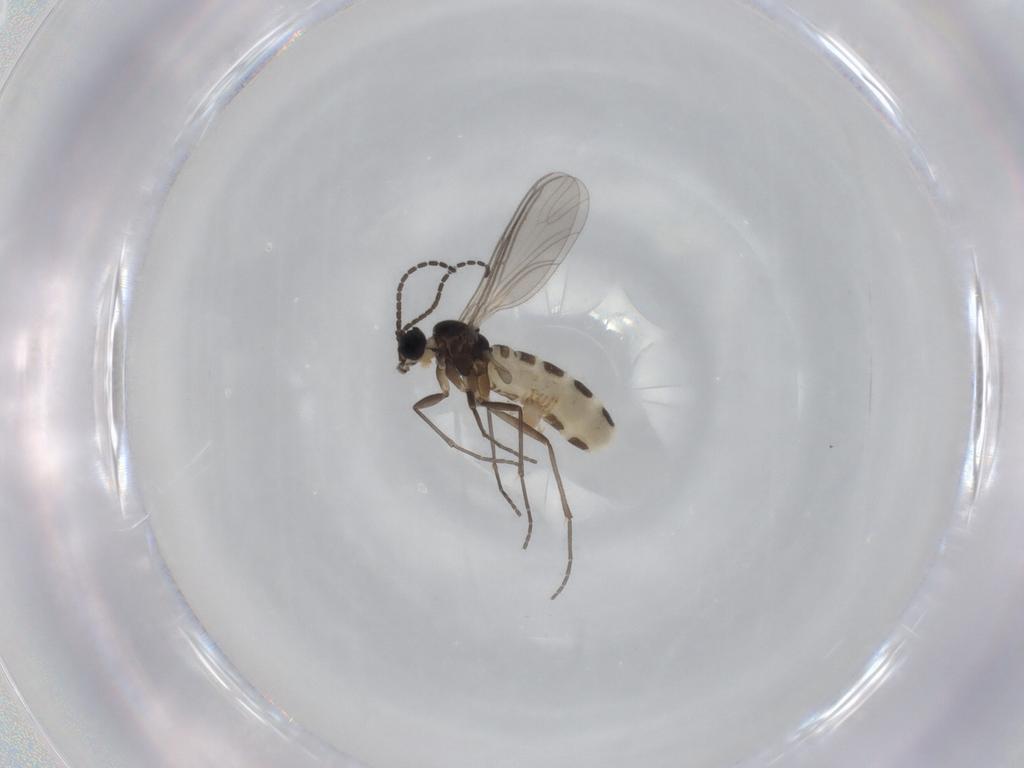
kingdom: Animalia
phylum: Arthropoda
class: Insecta
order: Diptera
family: Sciaridae
